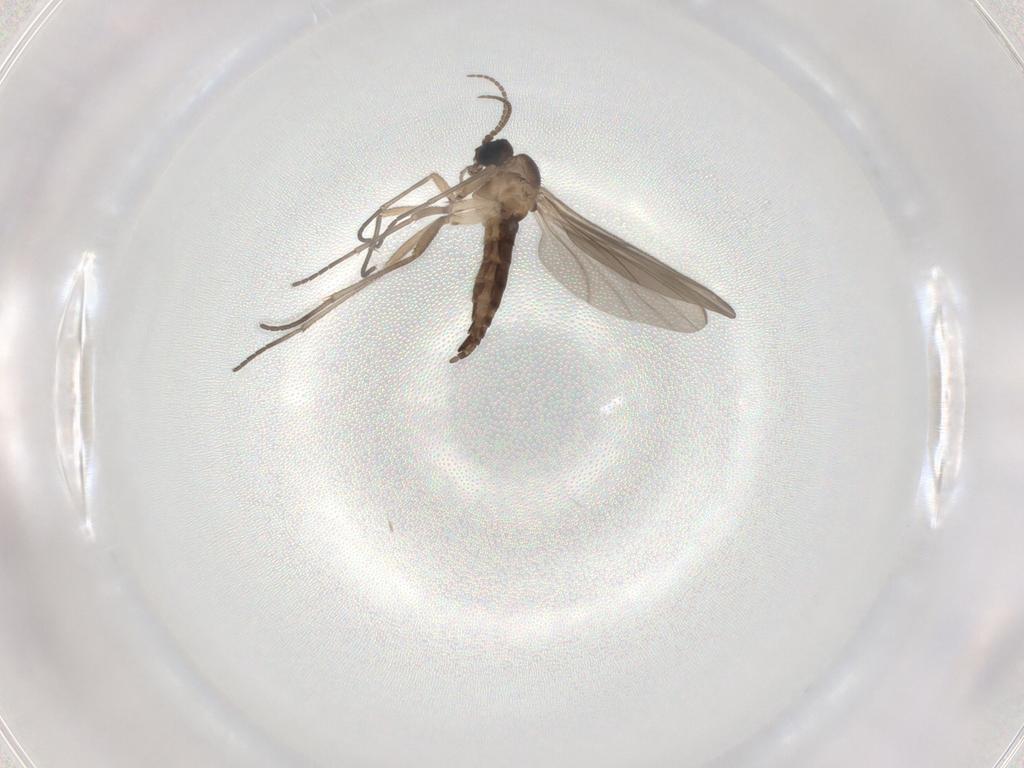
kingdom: Animalia
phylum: Arthropoda
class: Insecta
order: Diptera
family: Sciaridae
